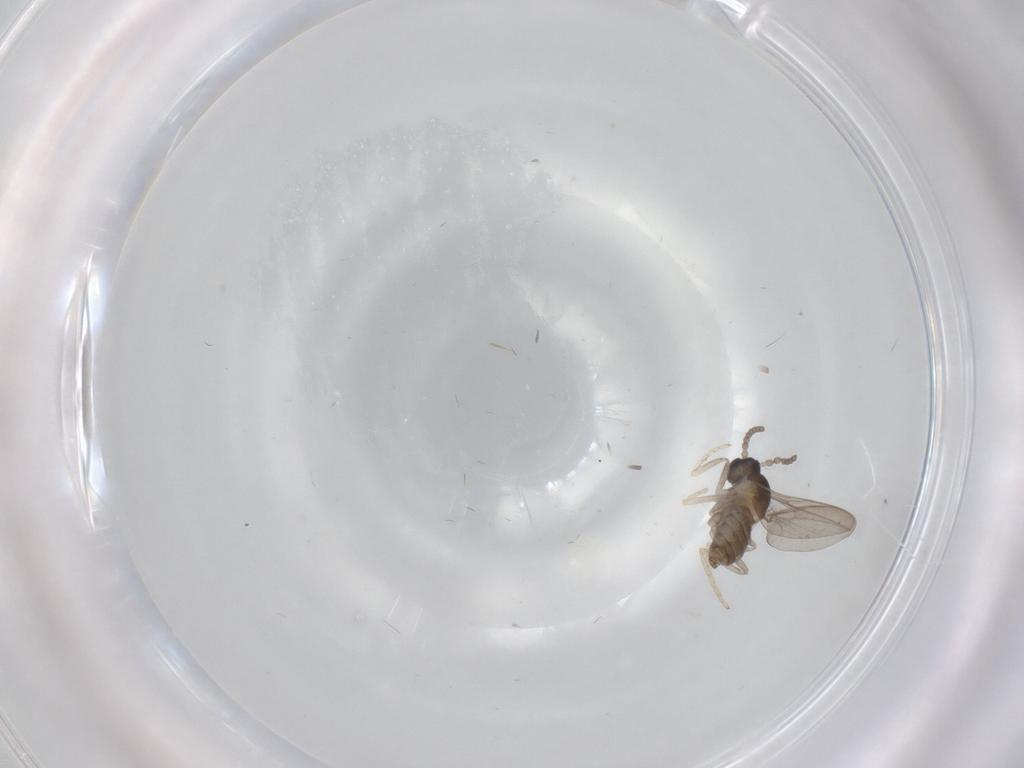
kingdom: Animalia
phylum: Arthropoda
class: Insecta
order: Diptera
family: Cecidomyiidae
